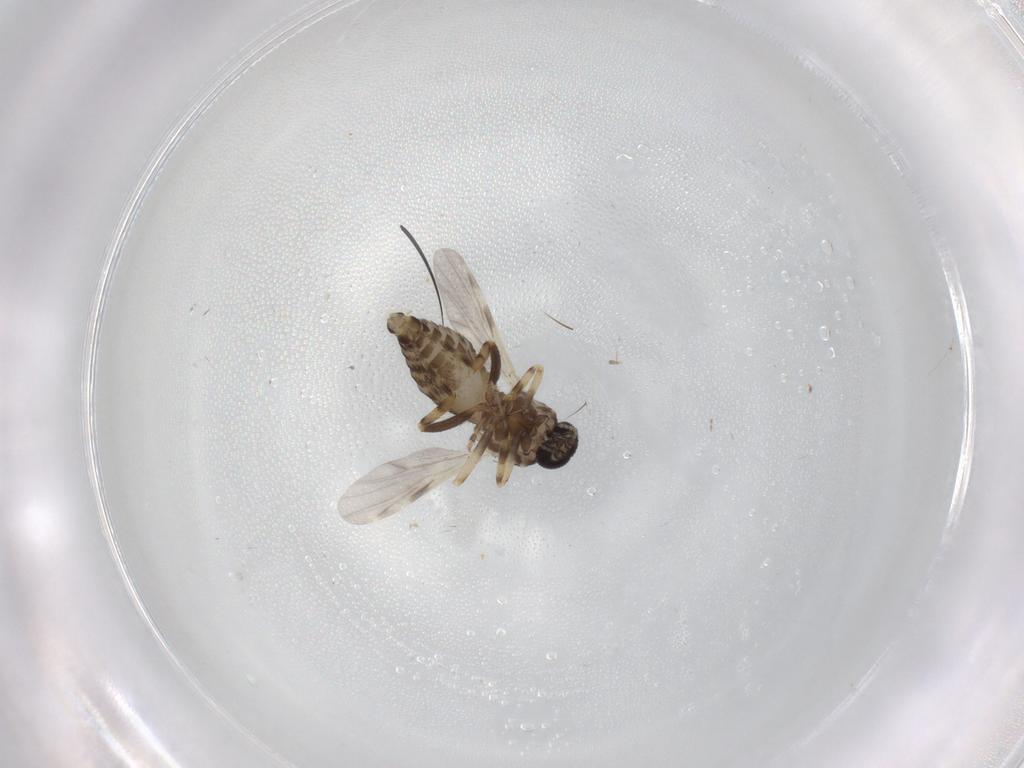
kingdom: Animalia
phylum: Arthropoda
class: Insecta
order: Diptera
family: Ceratopogonidae
